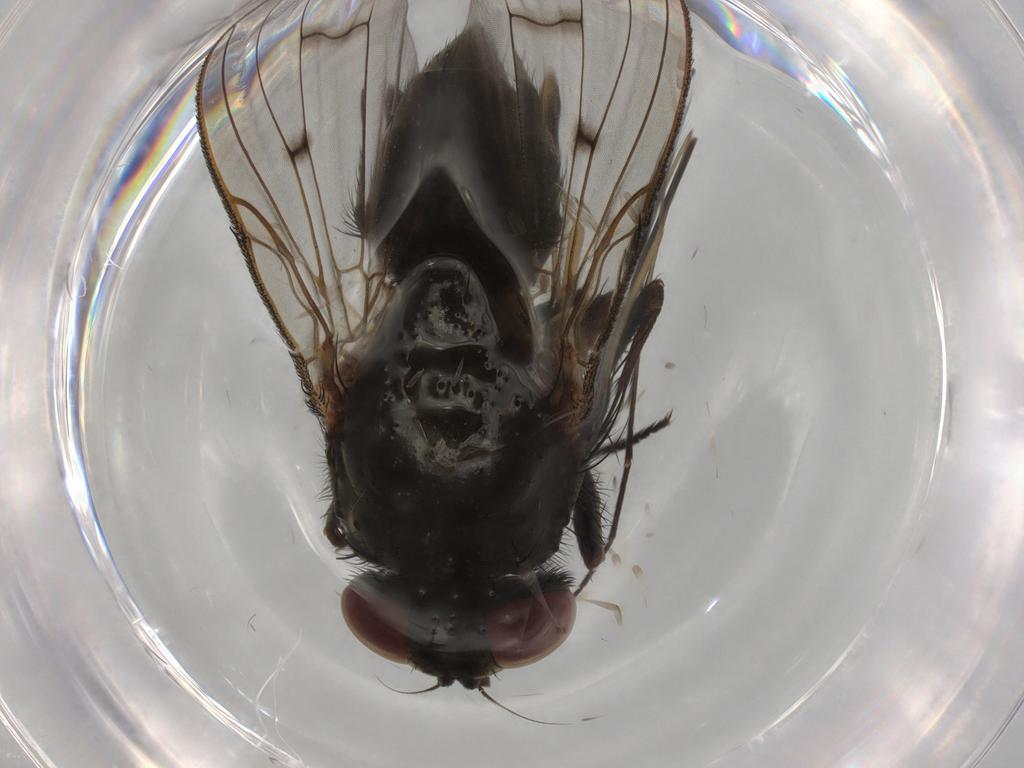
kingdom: Animalia
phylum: Arthropoda
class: Insecta
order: Diptera
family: Muscidae
